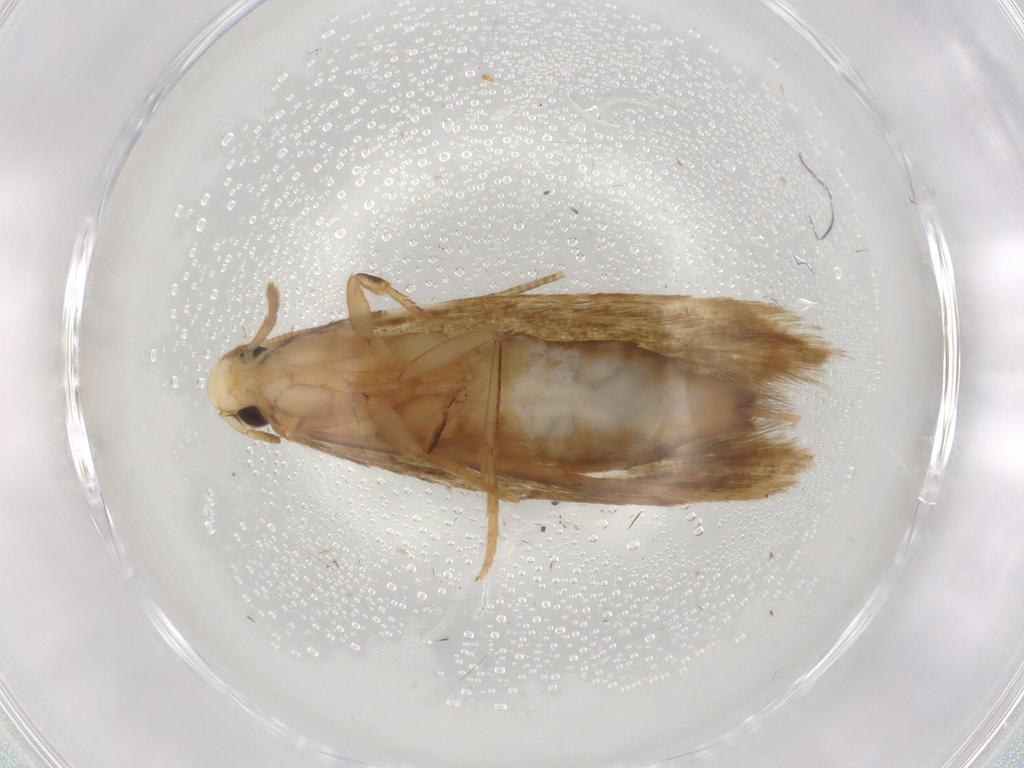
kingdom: Animalia
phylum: Arthropoda
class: Insecta
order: Lepidoptera
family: Tineidae
